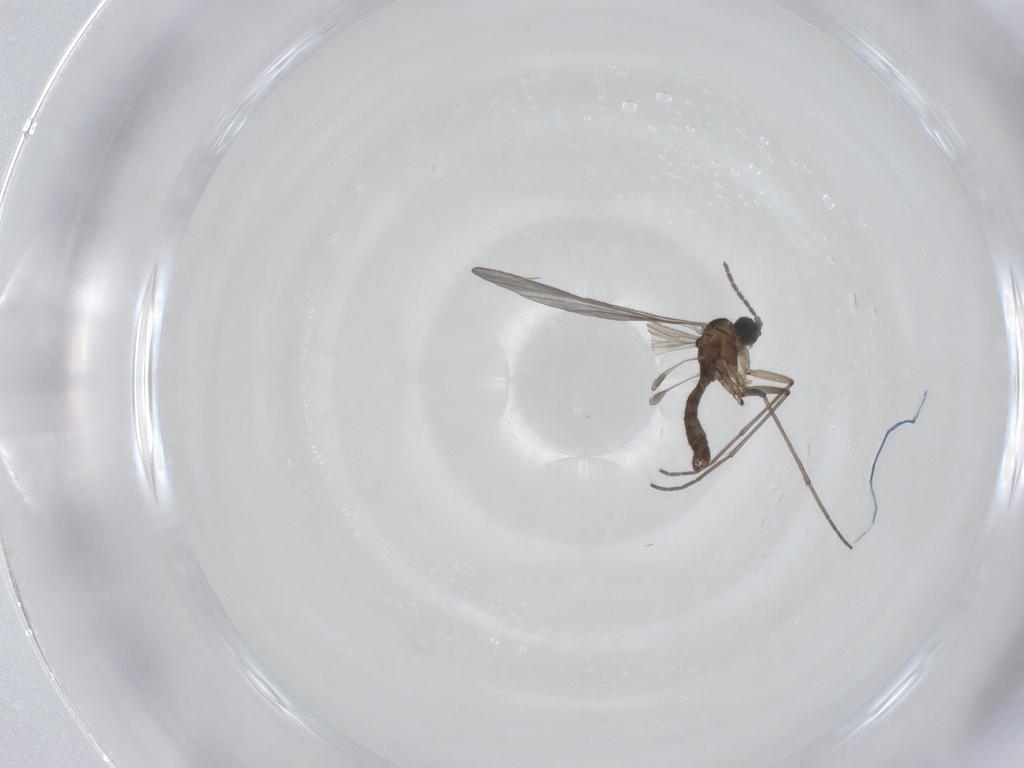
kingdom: Animalia
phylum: Arthropoda
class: Insecta
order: Diptera
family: Sciaridae
